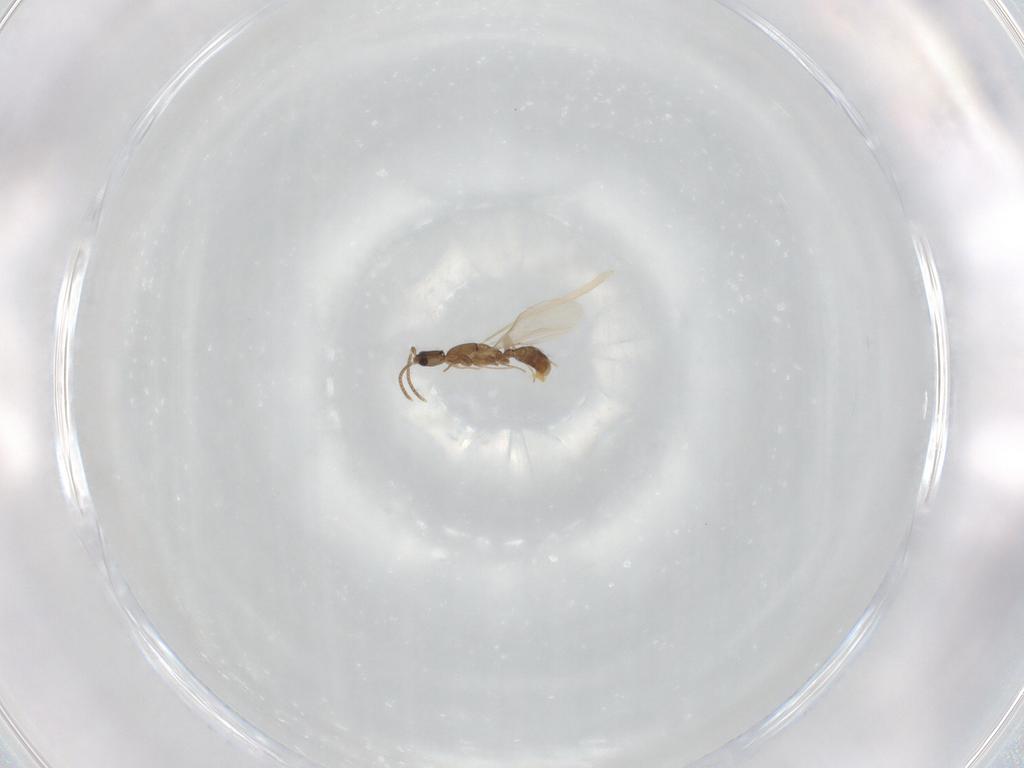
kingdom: Animalia
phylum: Arthropoda
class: Insecta
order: Hymenoptera
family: Formicidae
